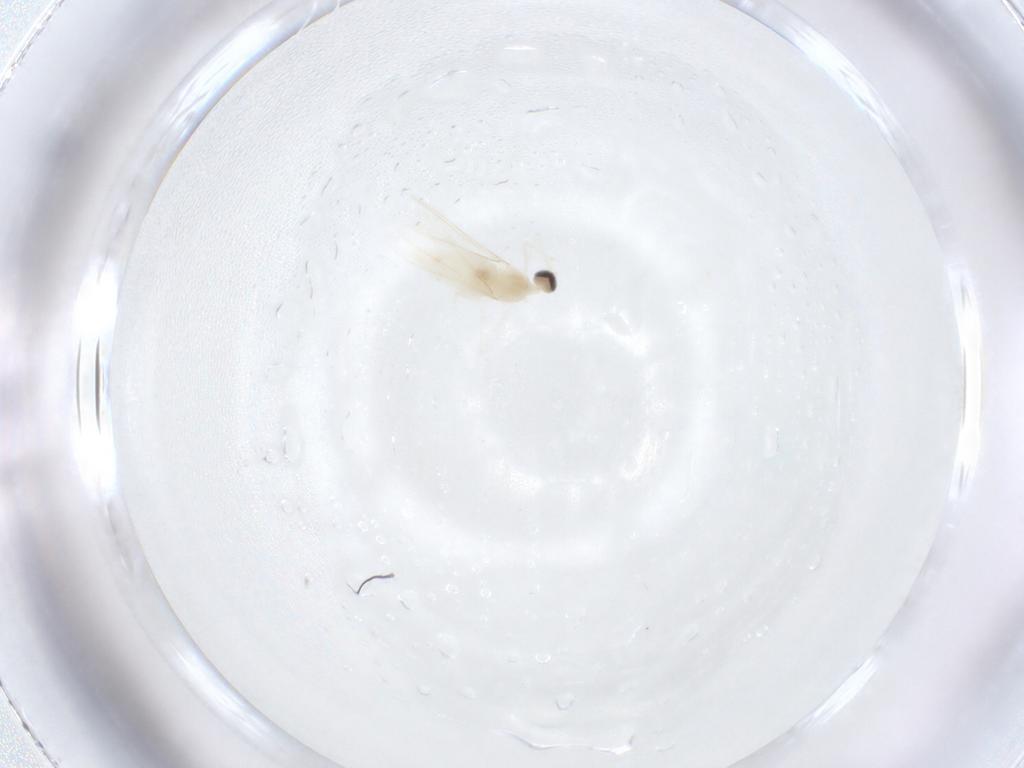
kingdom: Animalia
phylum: Arthropoda
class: Insecta
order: Diptera
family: Cecidomyiidae
